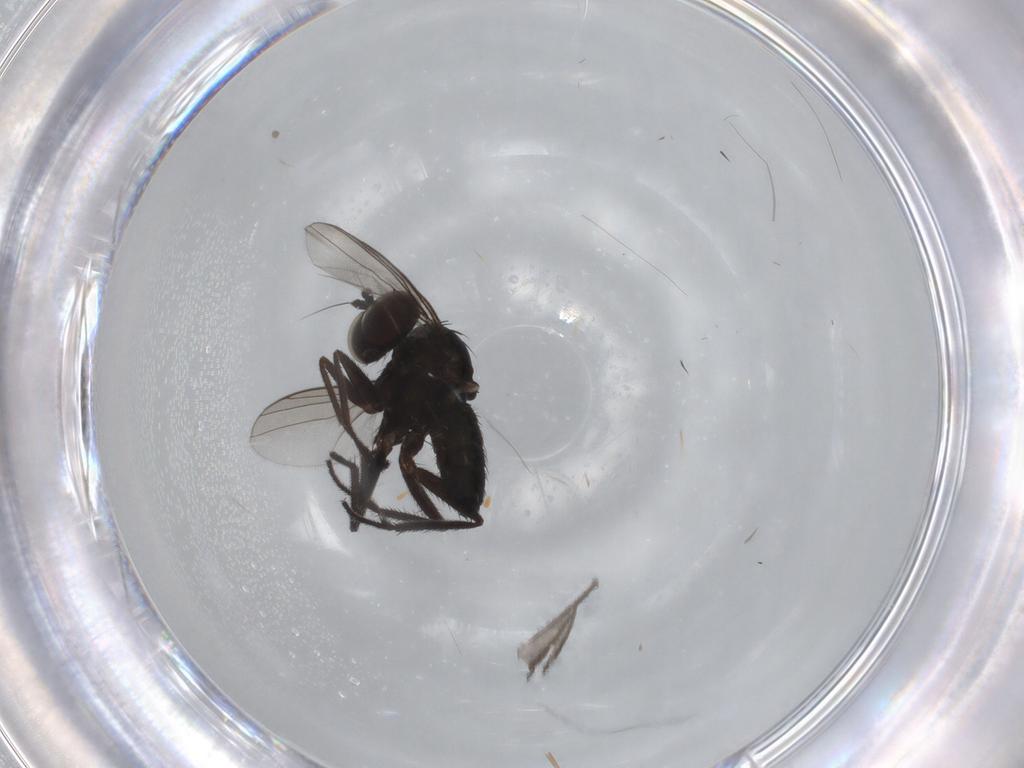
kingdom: Animalia
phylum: Arthropoda
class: Insecta
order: Diptera
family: Dolichopodidae
